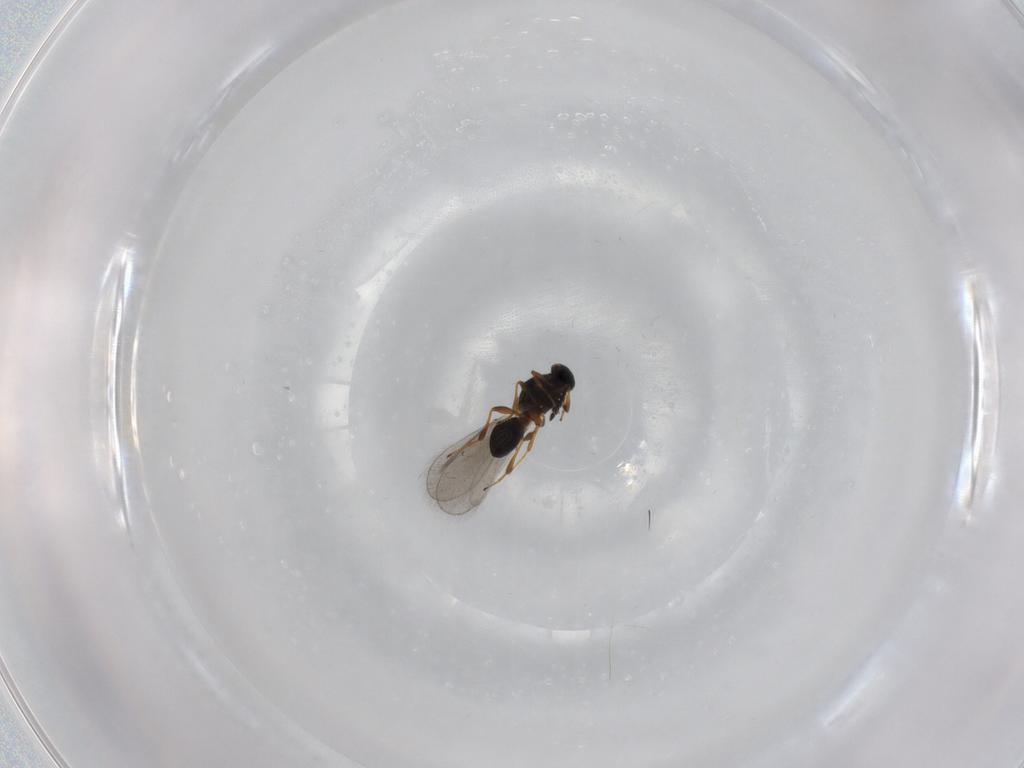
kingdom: Animalia
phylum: Arthropoda
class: Insecta
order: Hymenoptera
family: Platygastridae
